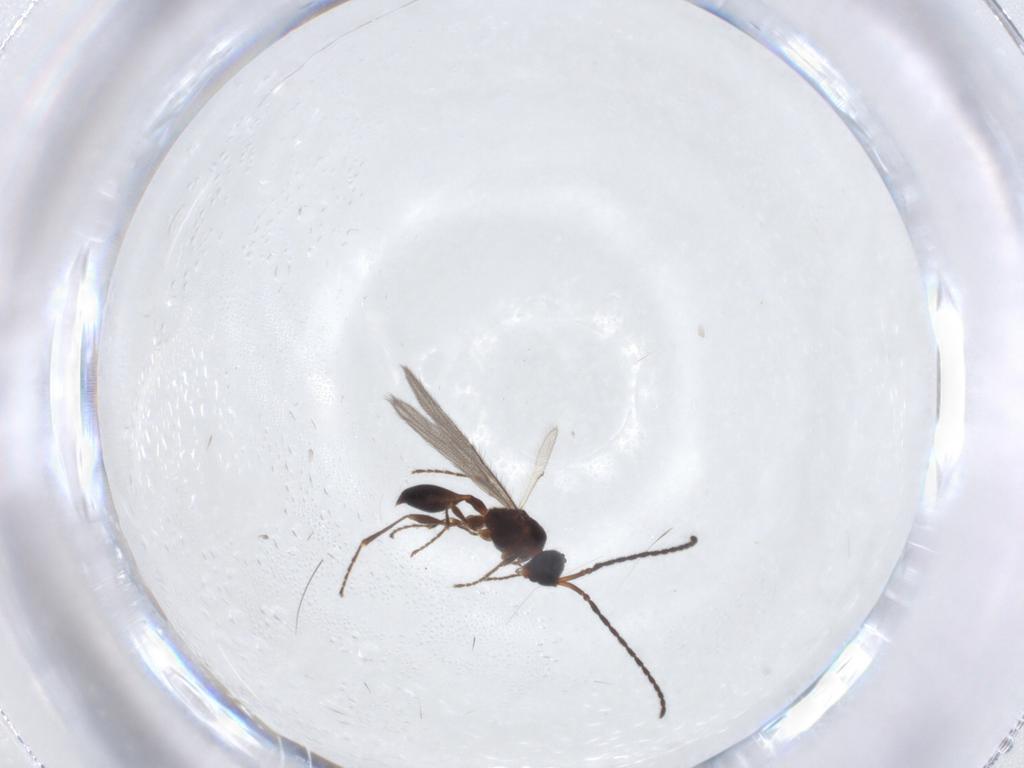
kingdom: Animalia
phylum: Arthropoda
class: Insecta
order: Hymenoptera
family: Diapriidae
